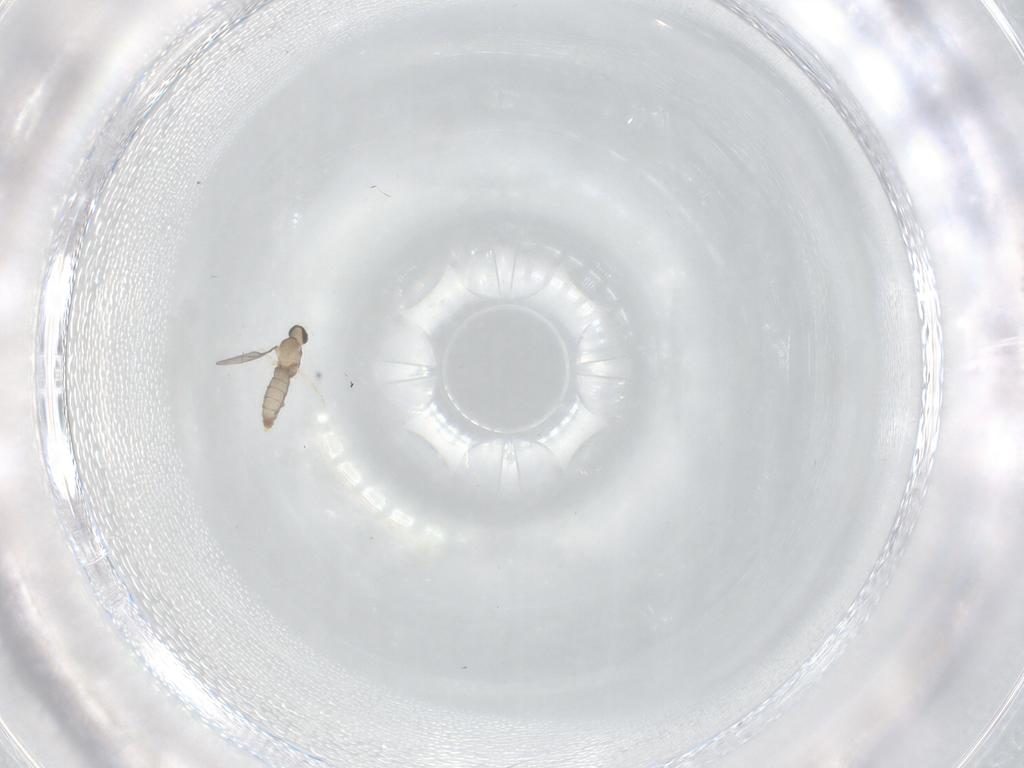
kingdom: Animalia
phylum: Arthropoda
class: Insecta
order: Diptera
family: Cecidomyiidae
